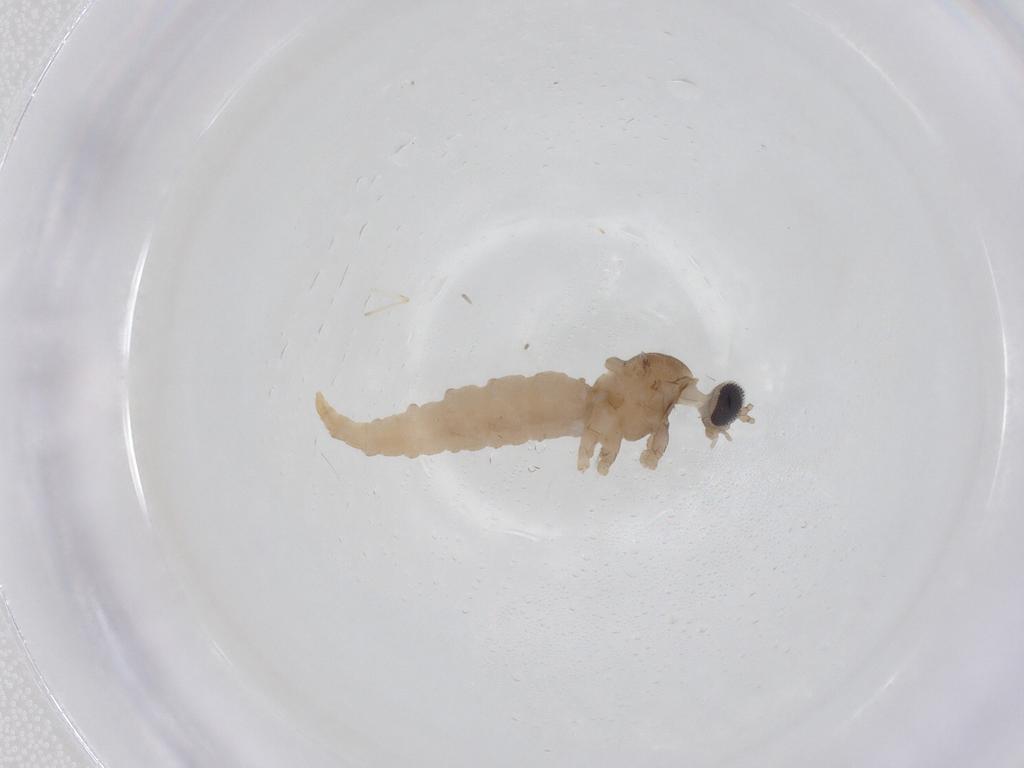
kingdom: Animalia
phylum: Arthropoda
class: Insecta
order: Diptera
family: Cecidomyiidae
